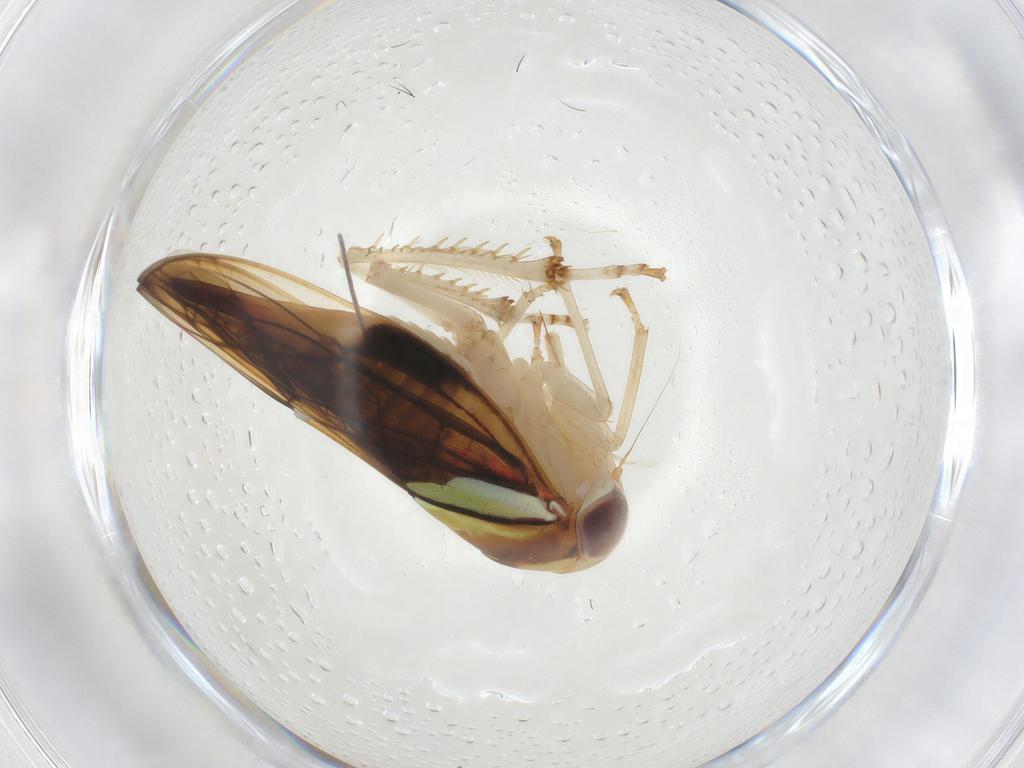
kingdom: Animalia
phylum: Arthropoda
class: Insecta
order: Hemiptera
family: Cicadellidae
